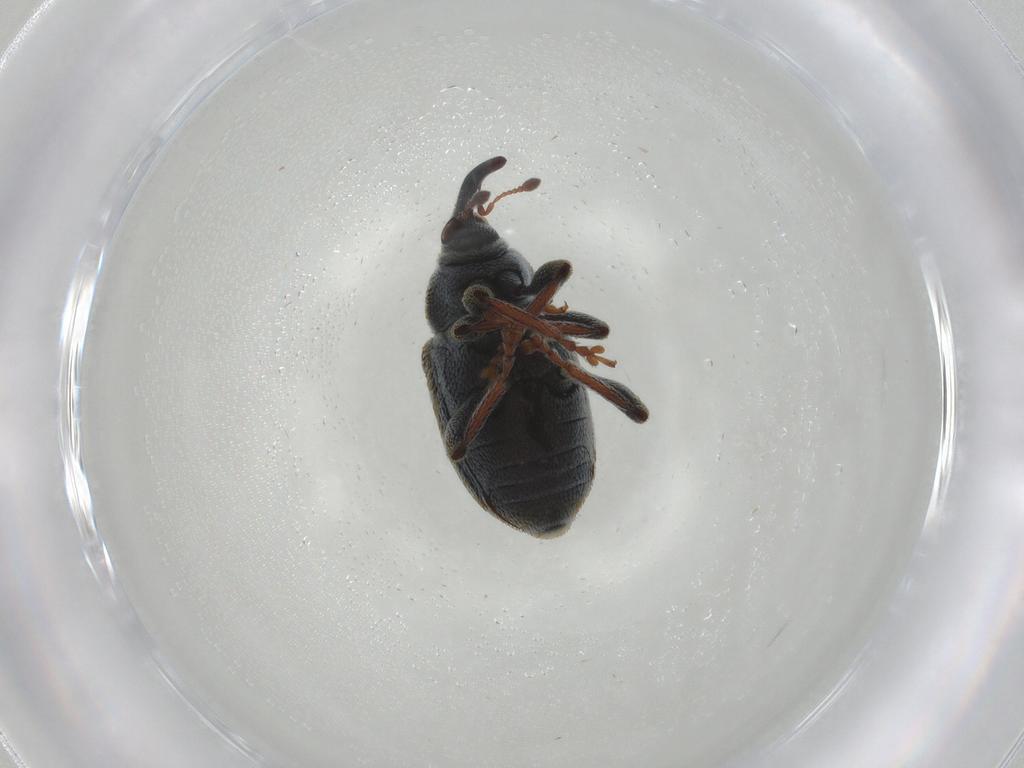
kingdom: Animalia
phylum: Arthropoda
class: Insecta
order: Coleoptera
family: Curculionidae
